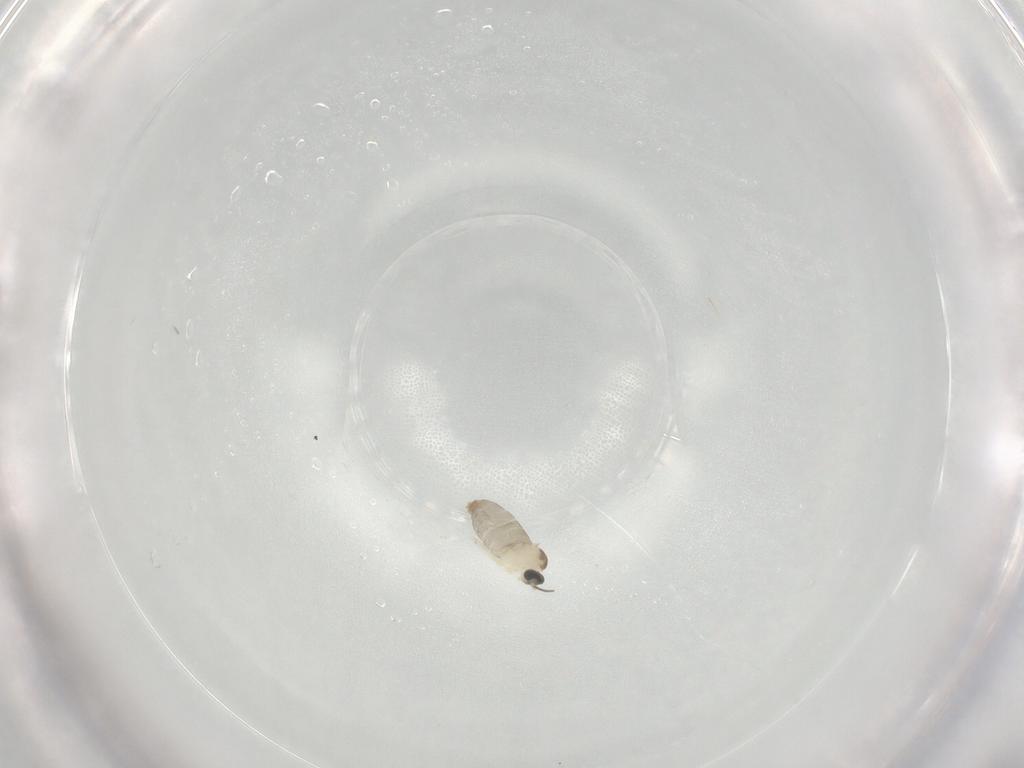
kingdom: Animalia
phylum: Arthropoda
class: Insecta
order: Diptera
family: Cecidomyiidae
